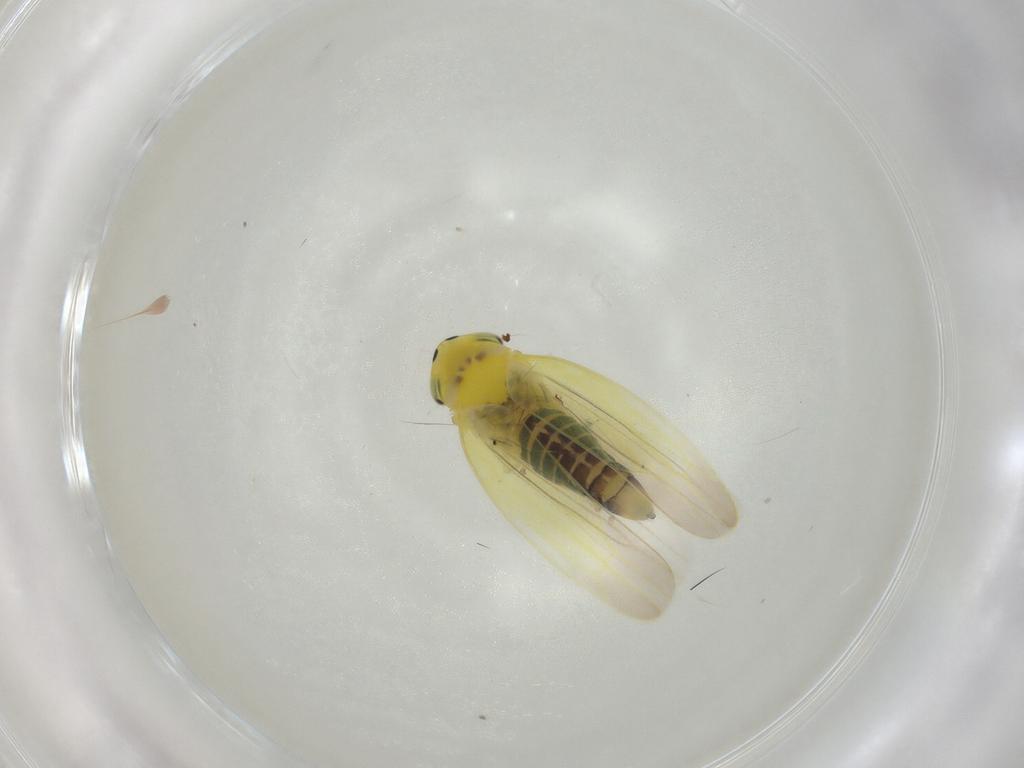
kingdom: Animalia
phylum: Arthropoda
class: Insecta
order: Hemiptera
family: Cicadellidae
